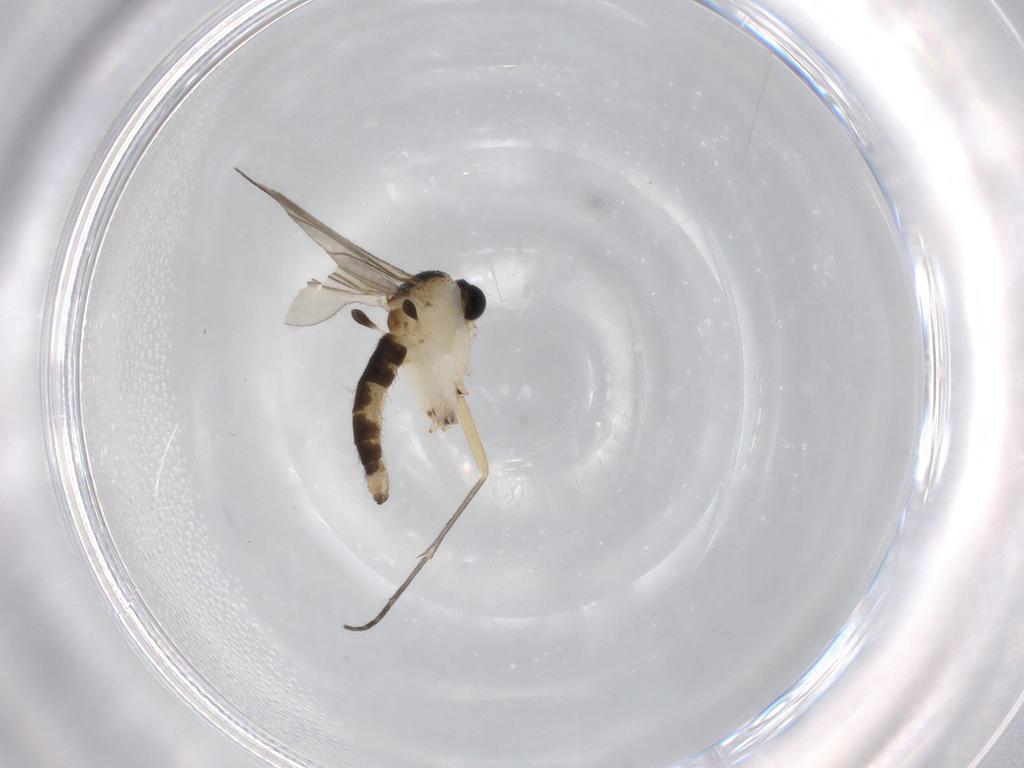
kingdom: Animalia
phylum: Arthropoda
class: Insecta
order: Diptera
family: Sciaridae
